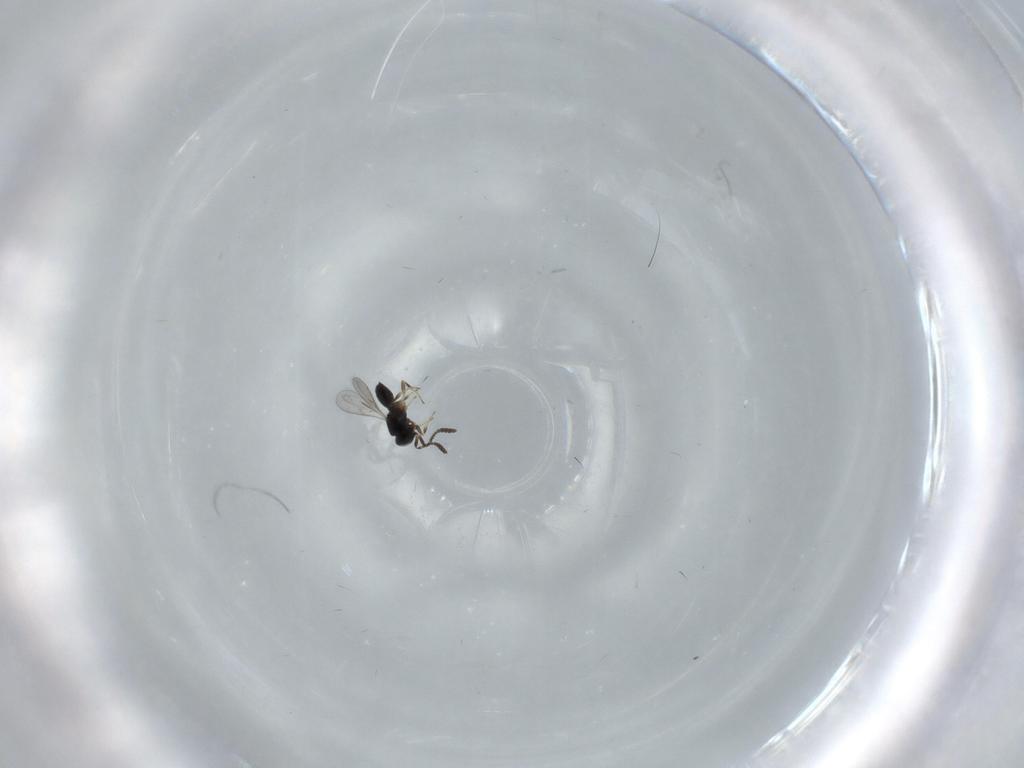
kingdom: Animalia
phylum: Arthropoda
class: Insecta
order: Hymenoptera
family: Scelionidae
